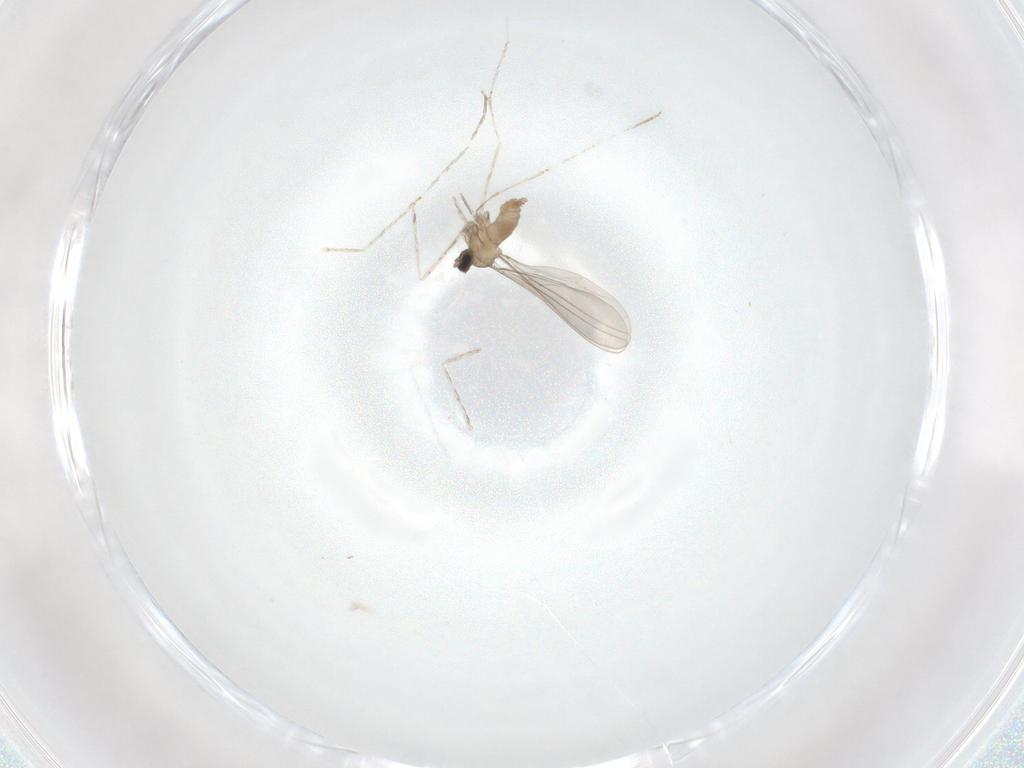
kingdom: Animalia
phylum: Arthropoda
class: Insecta
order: Diptera
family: Cecidomyiidae
